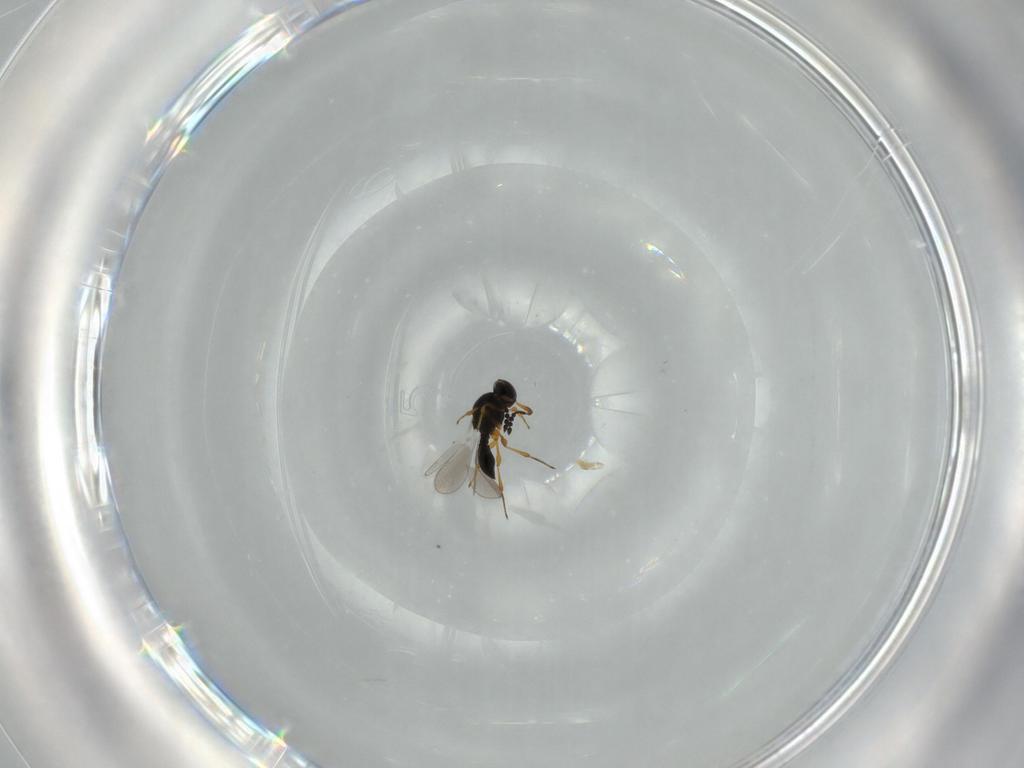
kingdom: Animalia
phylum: Arthropoda
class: Insecta
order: Hymenoptera
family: Platygastridae
